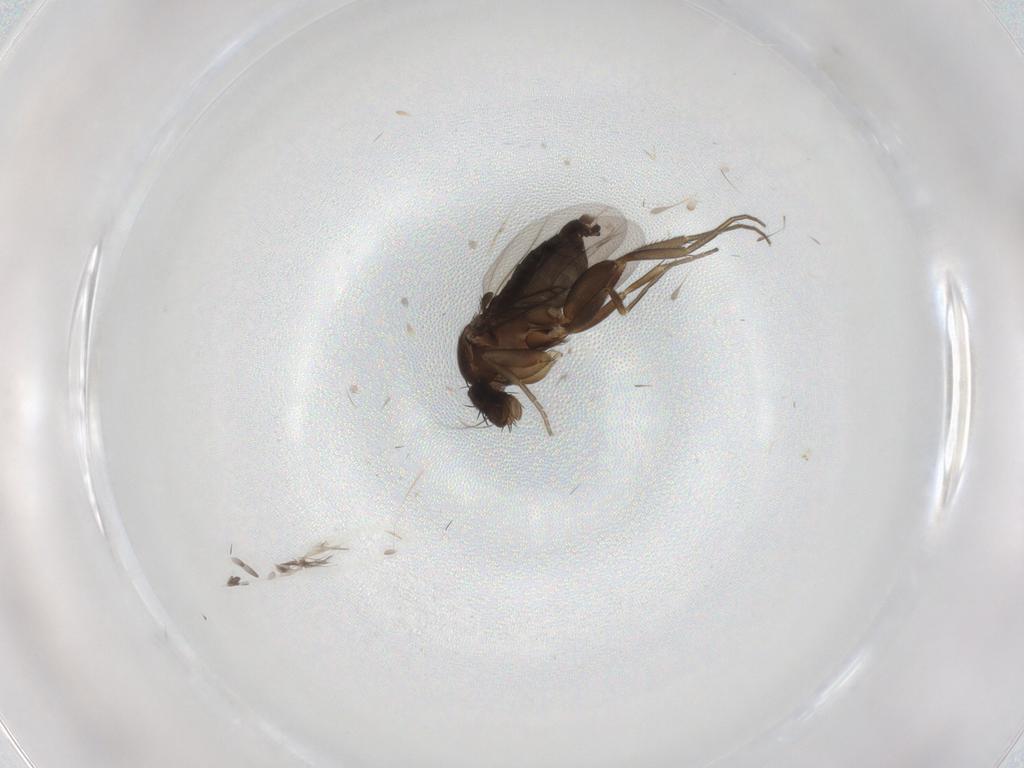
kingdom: Animalia
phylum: Arthropoda
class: Insecta
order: Diptera
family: Phoridae
